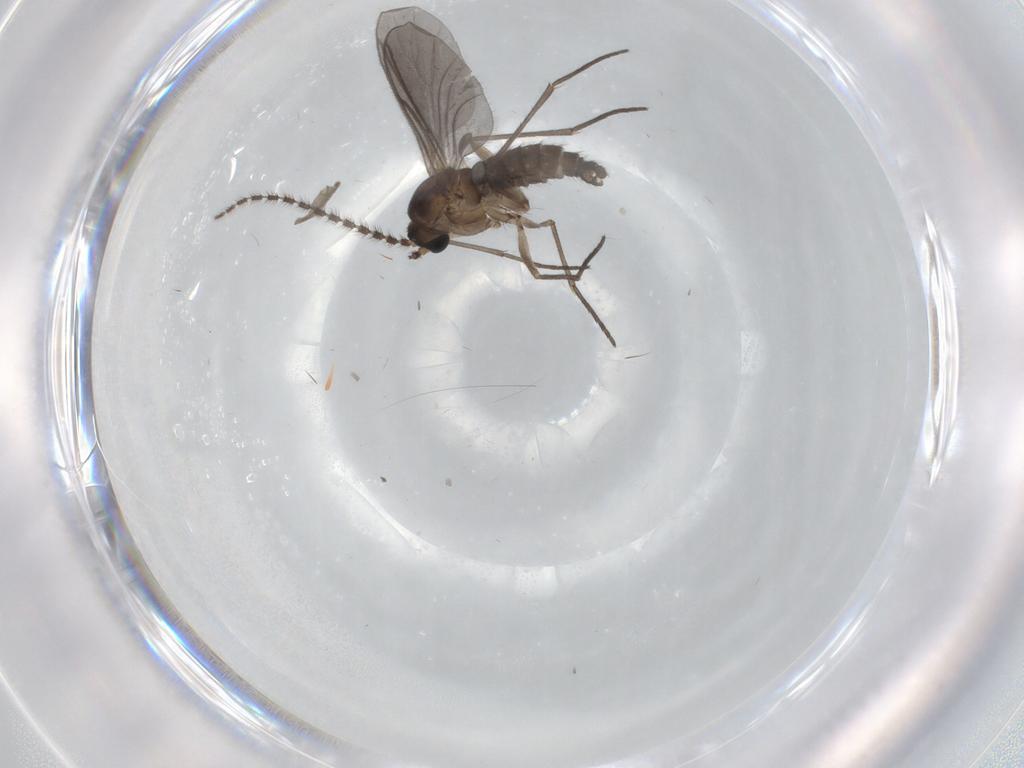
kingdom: Animalia
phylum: Arthropoda
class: Insecta
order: Diptera
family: Sciaridae
